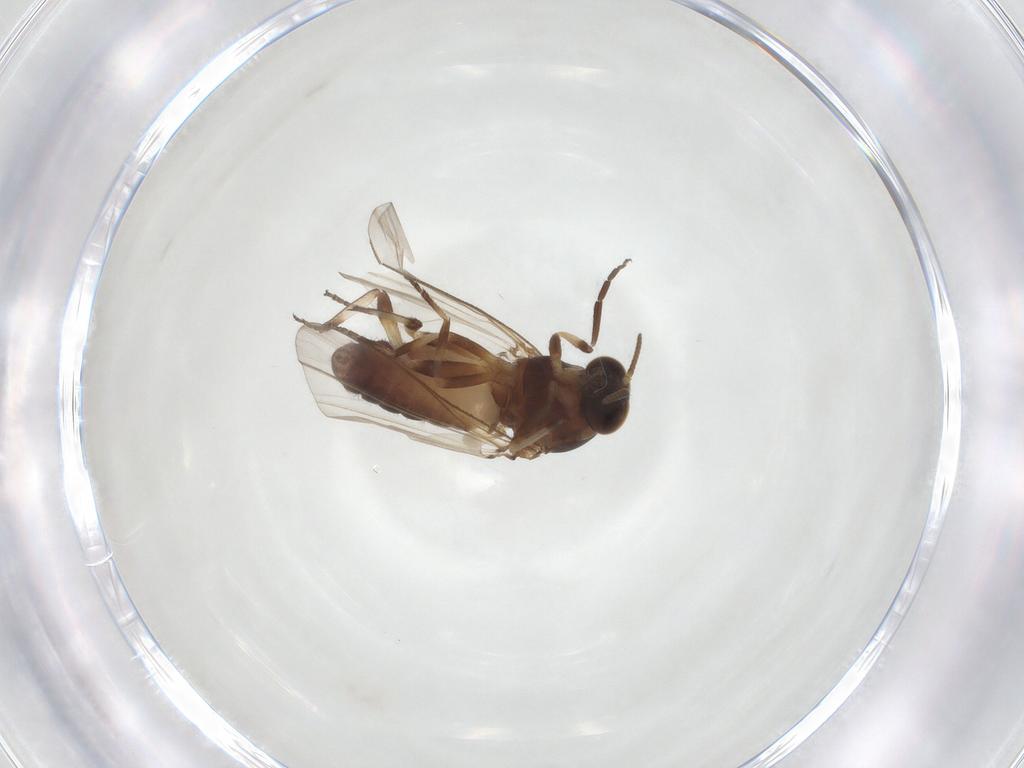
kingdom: Animalia
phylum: Arthropoda
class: Insecta
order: Diptera
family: Simuliidae
